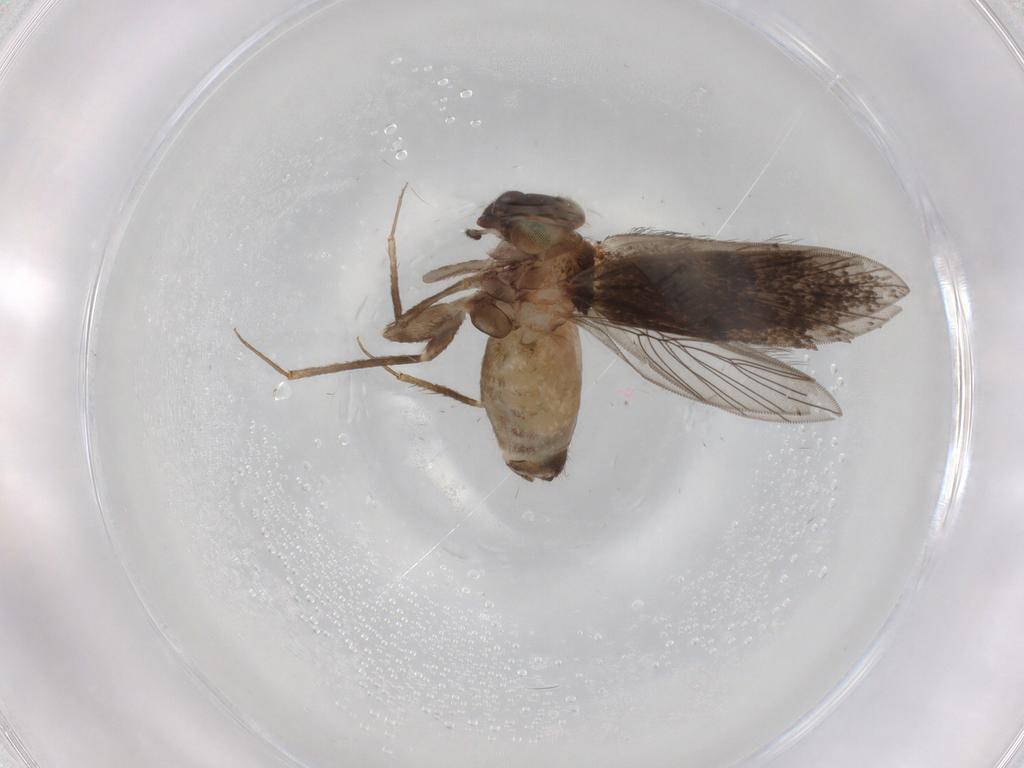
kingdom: Animalia
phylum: Arthropoda
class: Insecta
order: Psocodea
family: Lepidopsocidae
